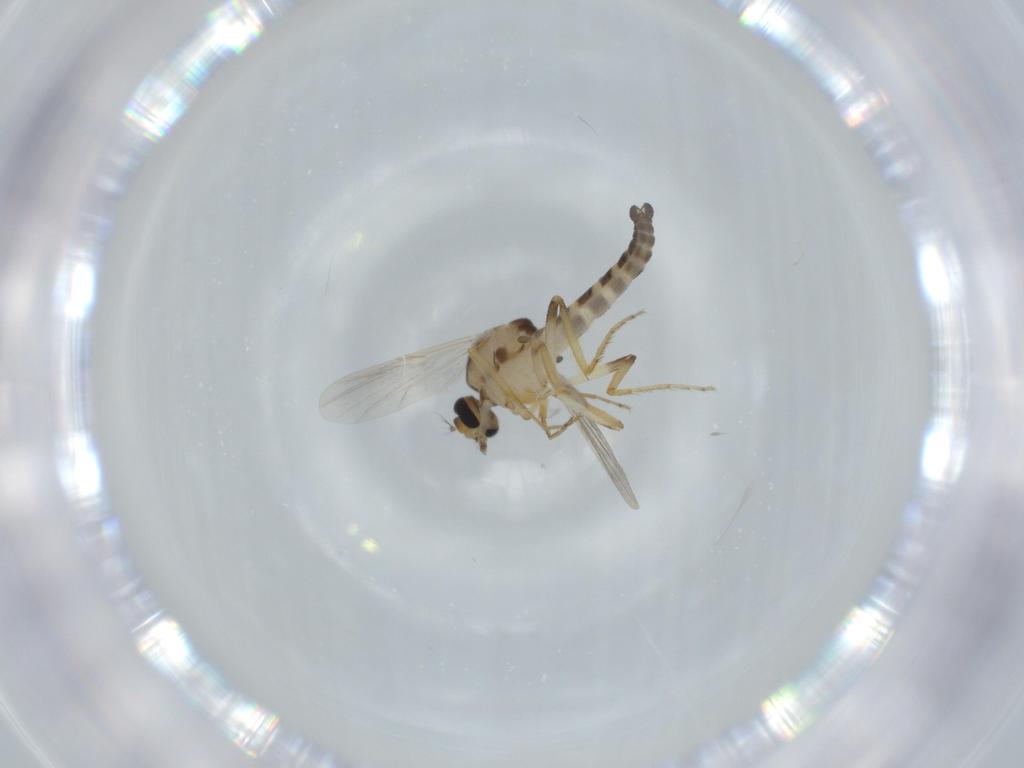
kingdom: Animalia
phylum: Arthropoda
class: Insecta
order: Diptera
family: Ceratopogonidae
